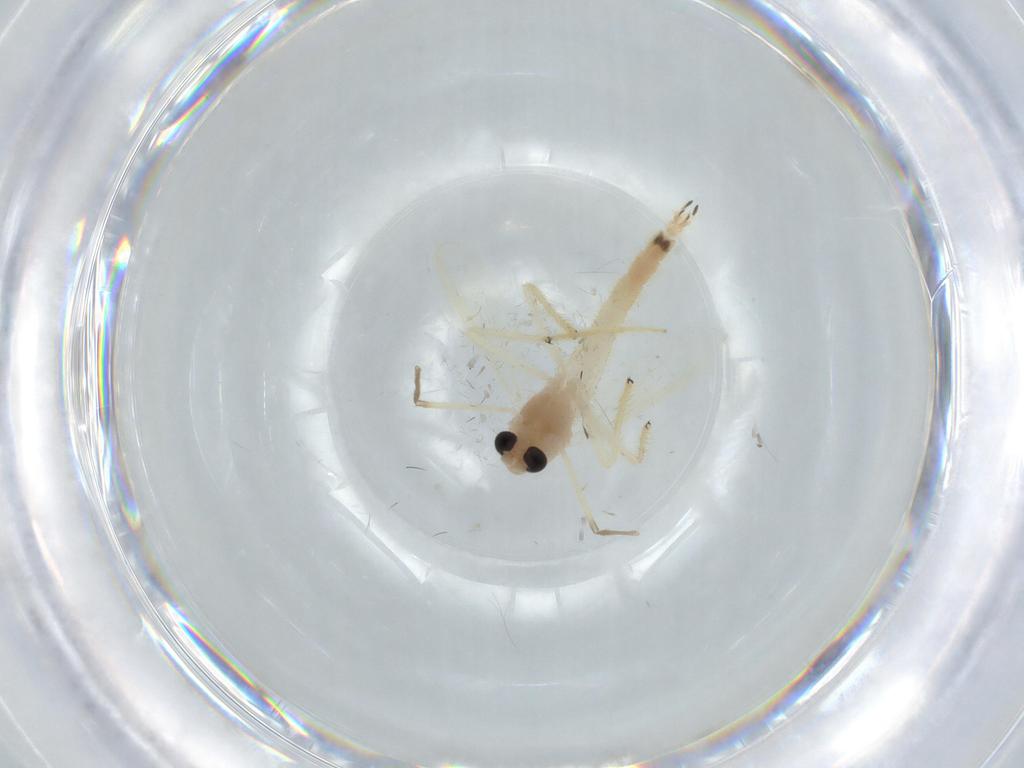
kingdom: Animalia
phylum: Arthropoda
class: Insecta
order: Diptera
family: Chironomidae
